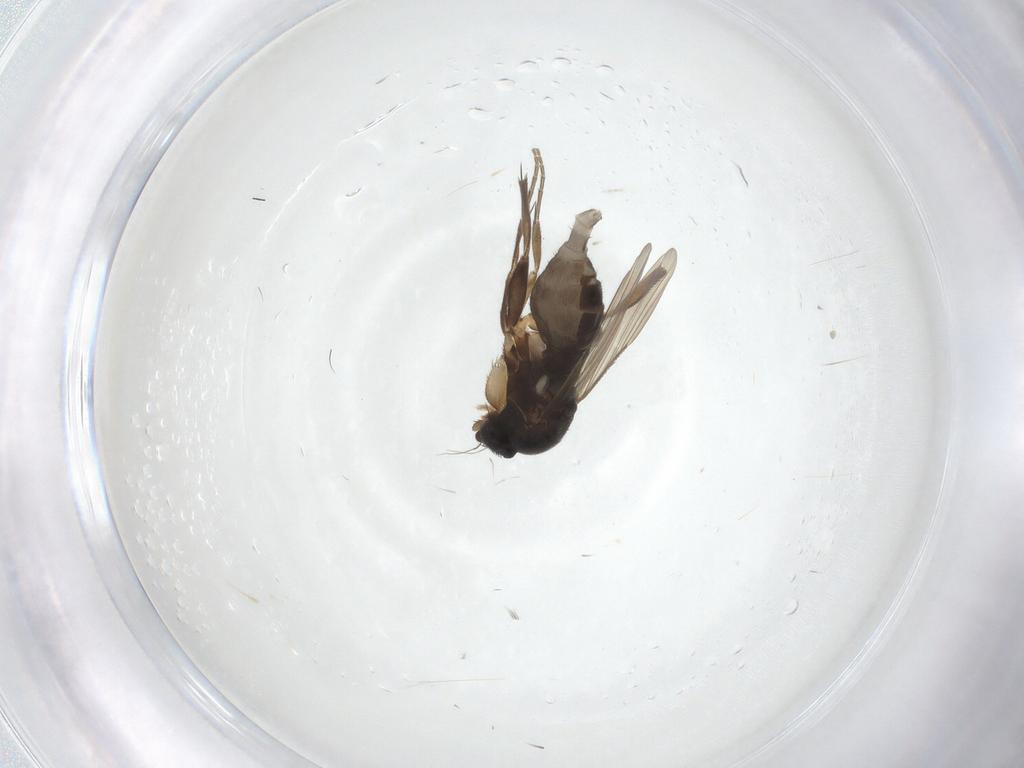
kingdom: Animalia
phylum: Arthropoda
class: Insecta
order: Diptera
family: Phoridae
